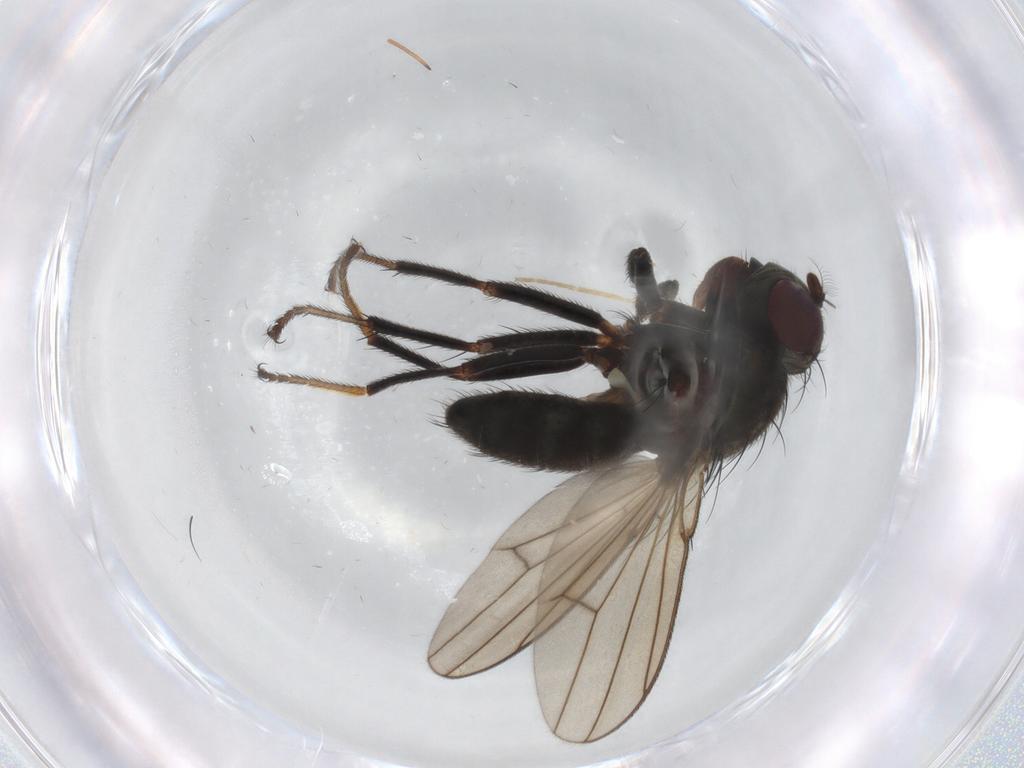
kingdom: Animalia
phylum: Arthropoda
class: Insecta
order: Diptera
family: Ephydridae
